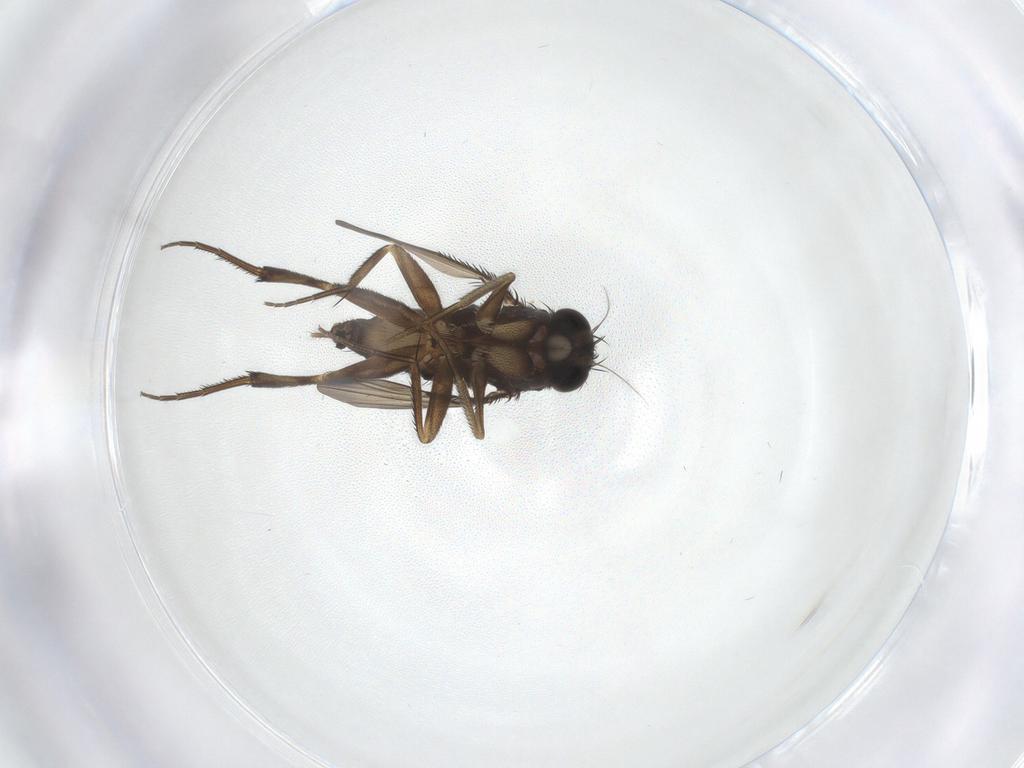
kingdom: Animalia
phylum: Arthropoda
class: Insecta
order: Diptera
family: Phoridae
